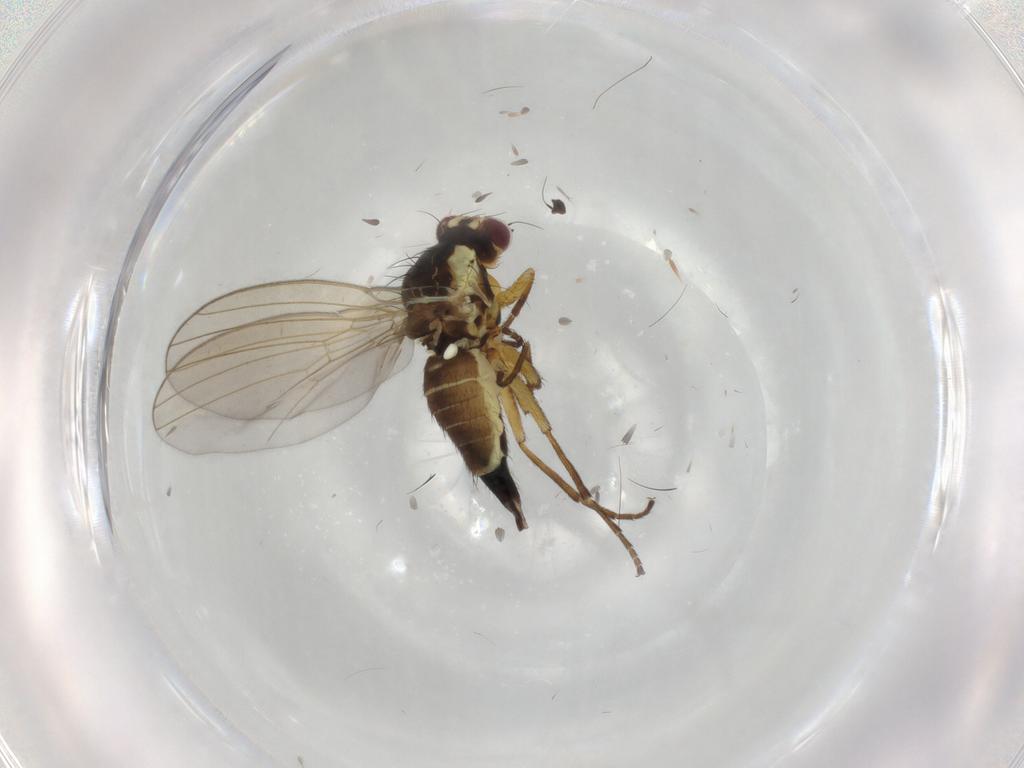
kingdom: Animalia
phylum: Arthropoda
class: Insecta
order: Diptera
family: Agromyzidae
